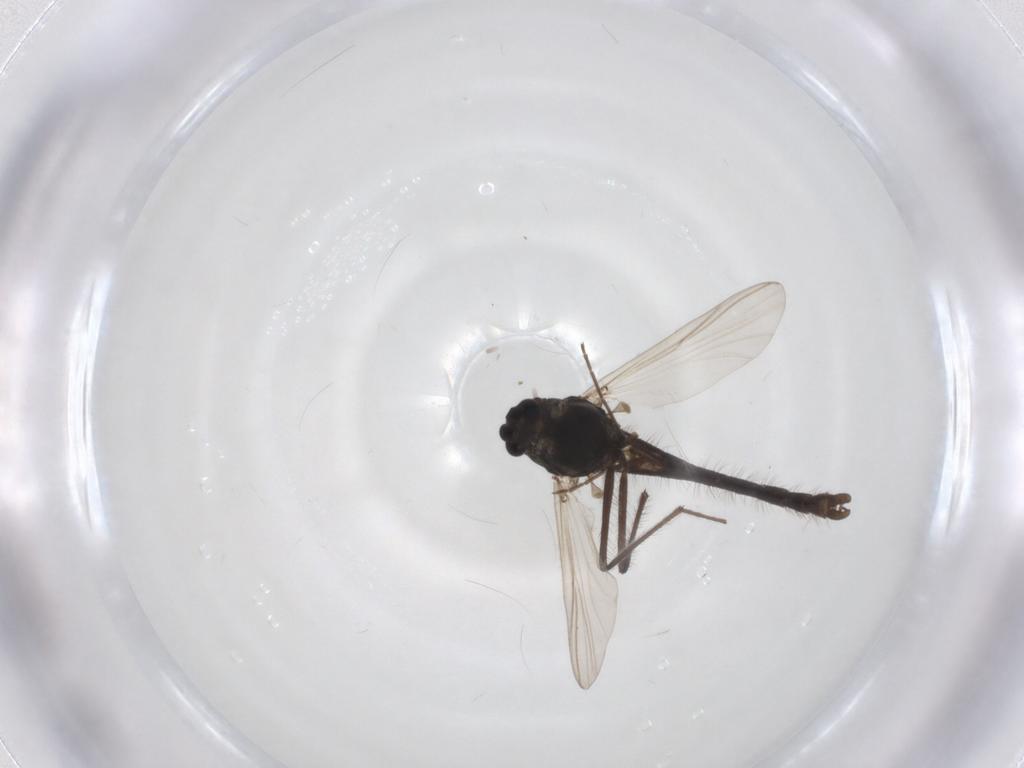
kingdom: Animalia
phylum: Arthropoda
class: Insecta
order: Diptera
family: Chironomidae
